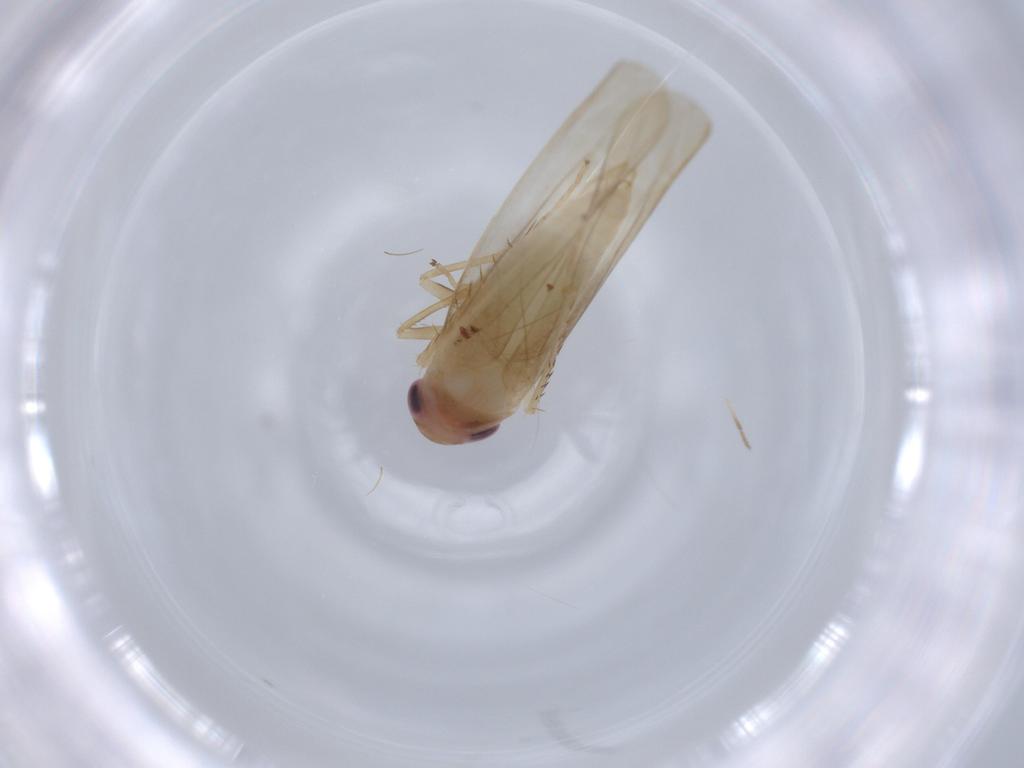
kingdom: Animalia
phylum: Arthropoda
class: Insecta
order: Hemiptera
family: Cicadellidae
